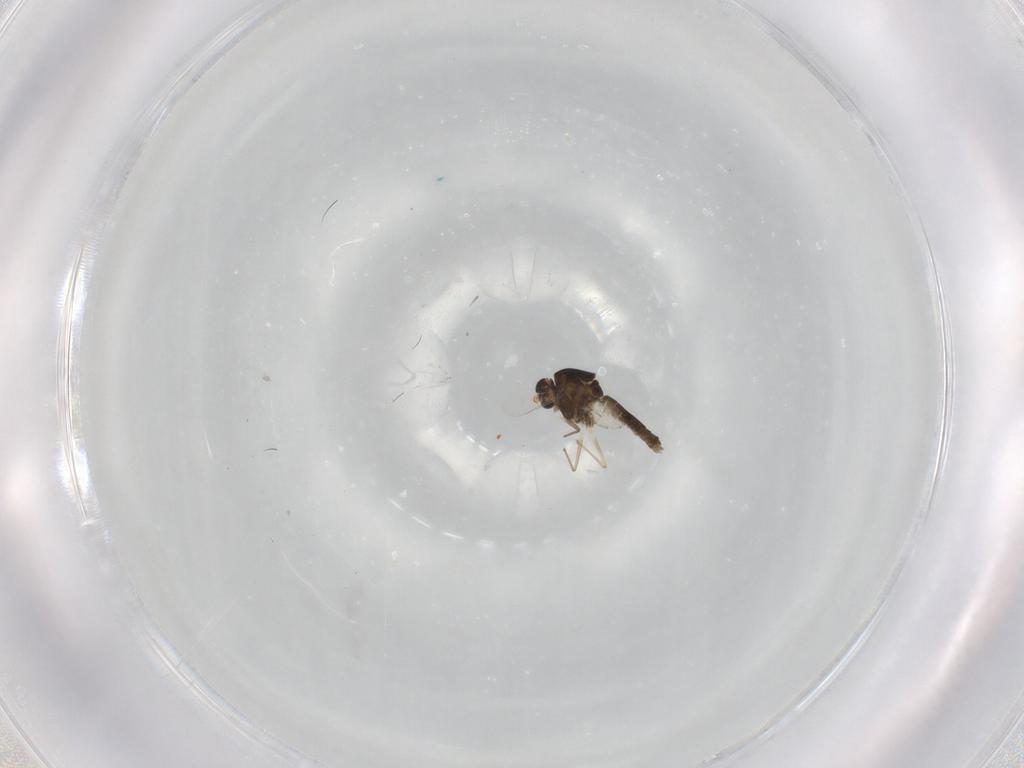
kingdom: Animalia
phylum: Arthropoda
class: Insecta
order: Diptera
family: Chironomidae
